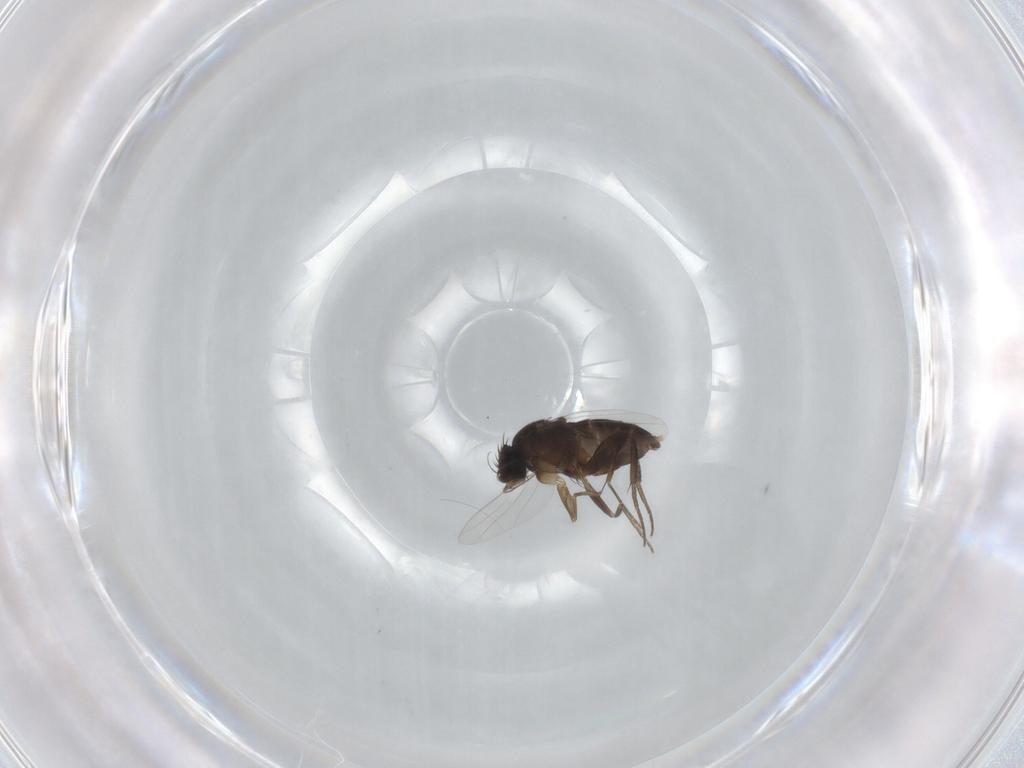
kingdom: Animalia
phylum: Arthropoda
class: Insecta
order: Diptera
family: Phoridae
